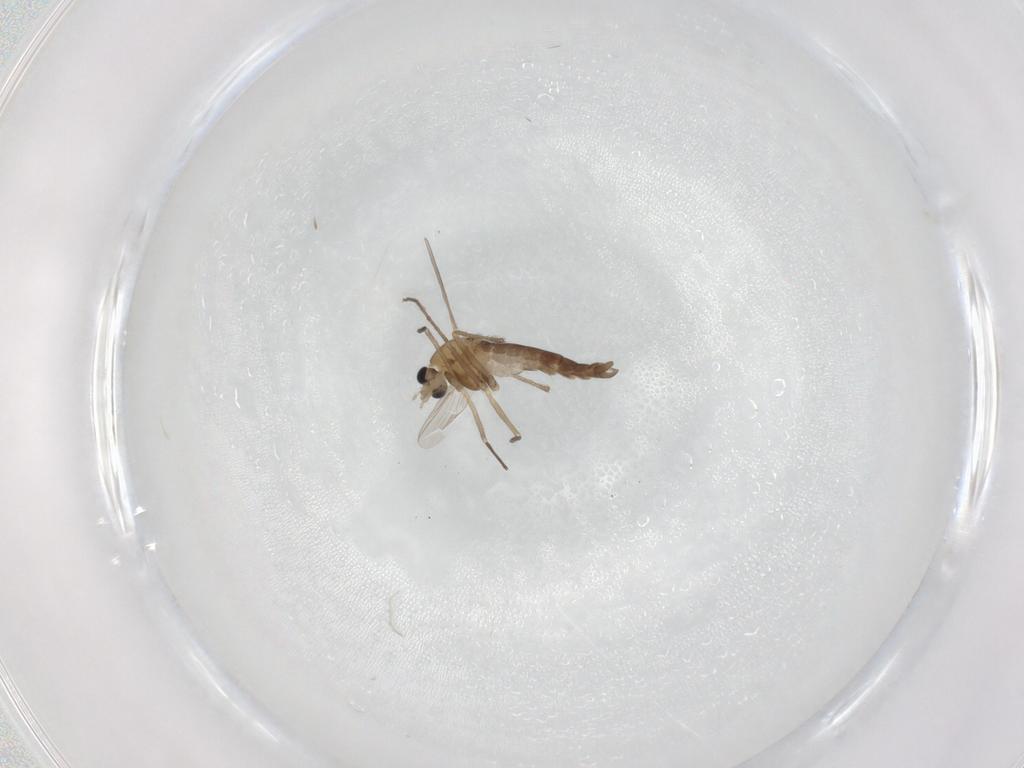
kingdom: Animalia
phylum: Arthropoda
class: Insecta
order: Diptera
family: Chironomidae
